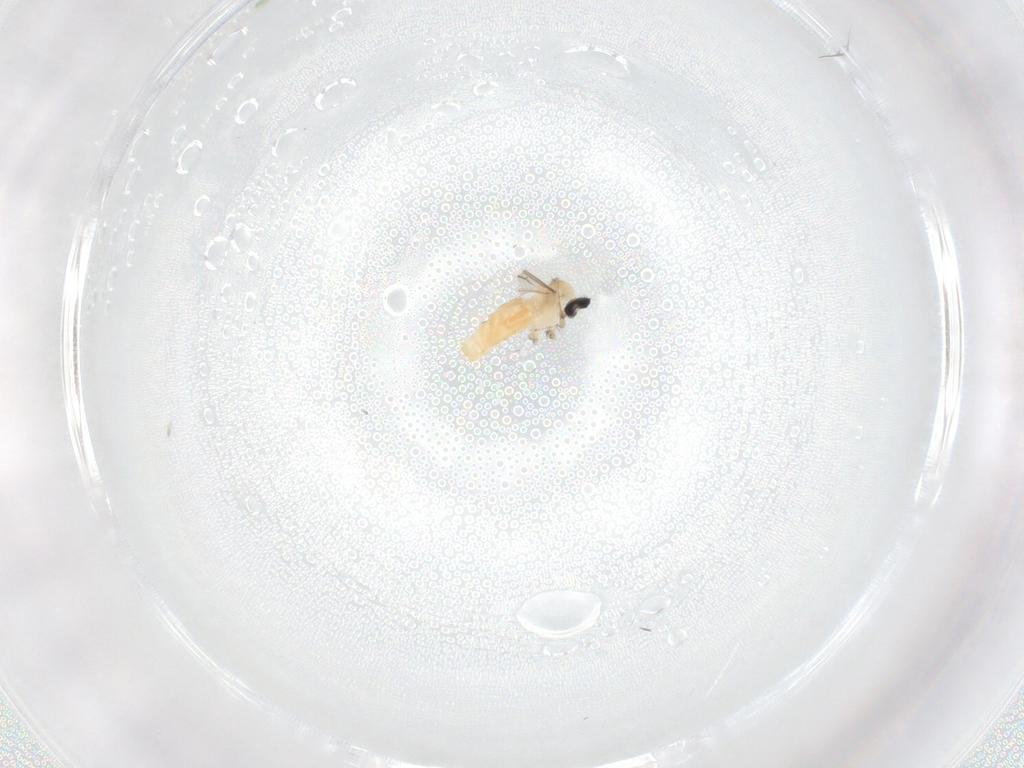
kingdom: Animalia
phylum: Arthropoda
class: Insecta
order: Diptera
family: Cecidomyiidae
